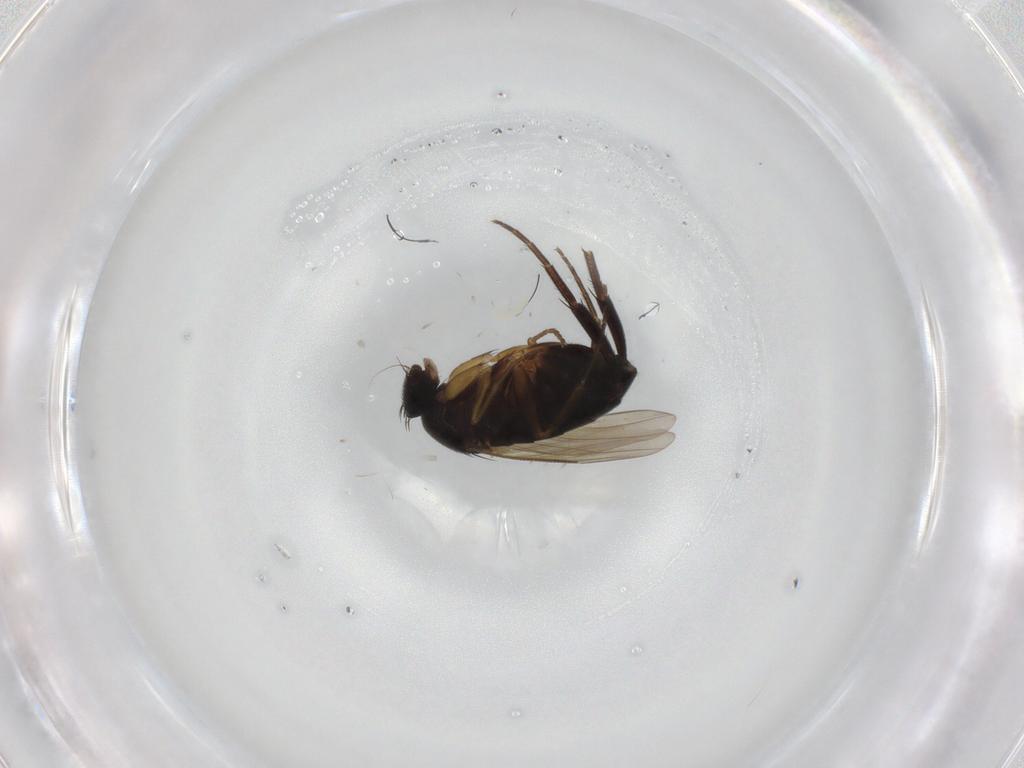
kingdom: Animalia
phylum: Arthropoda
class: Insecta
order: Diptera
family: Phoridae
